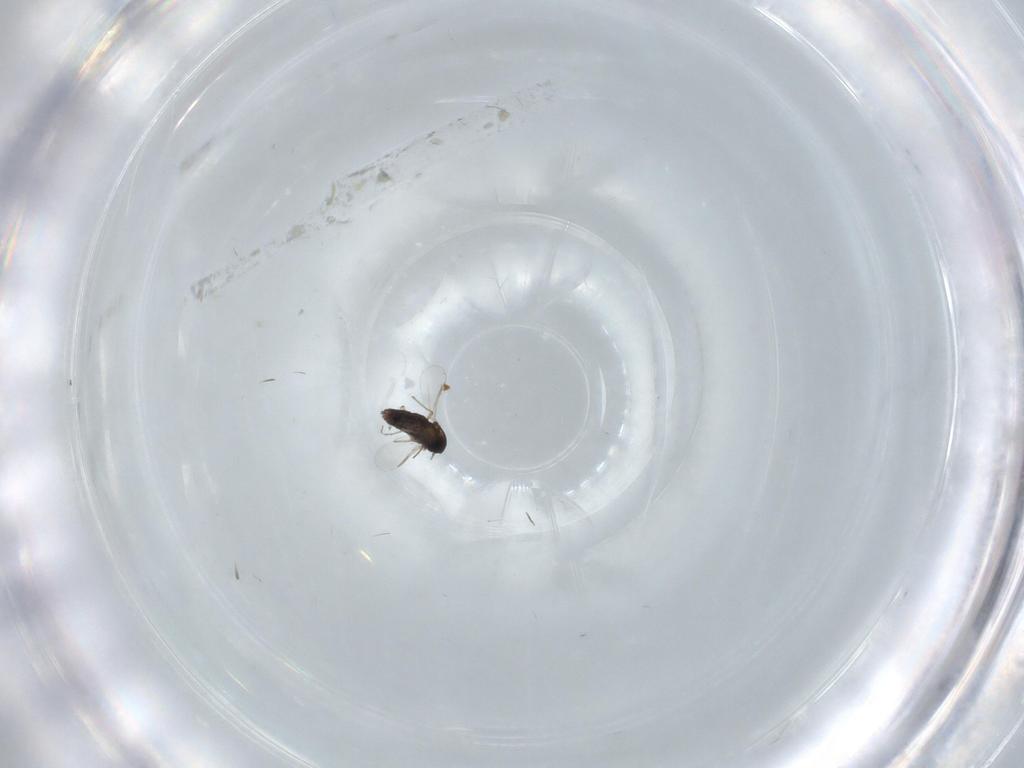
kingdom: Animalia
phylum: Arthropoda
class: Insecta
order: Diptera
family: Chironomidae
